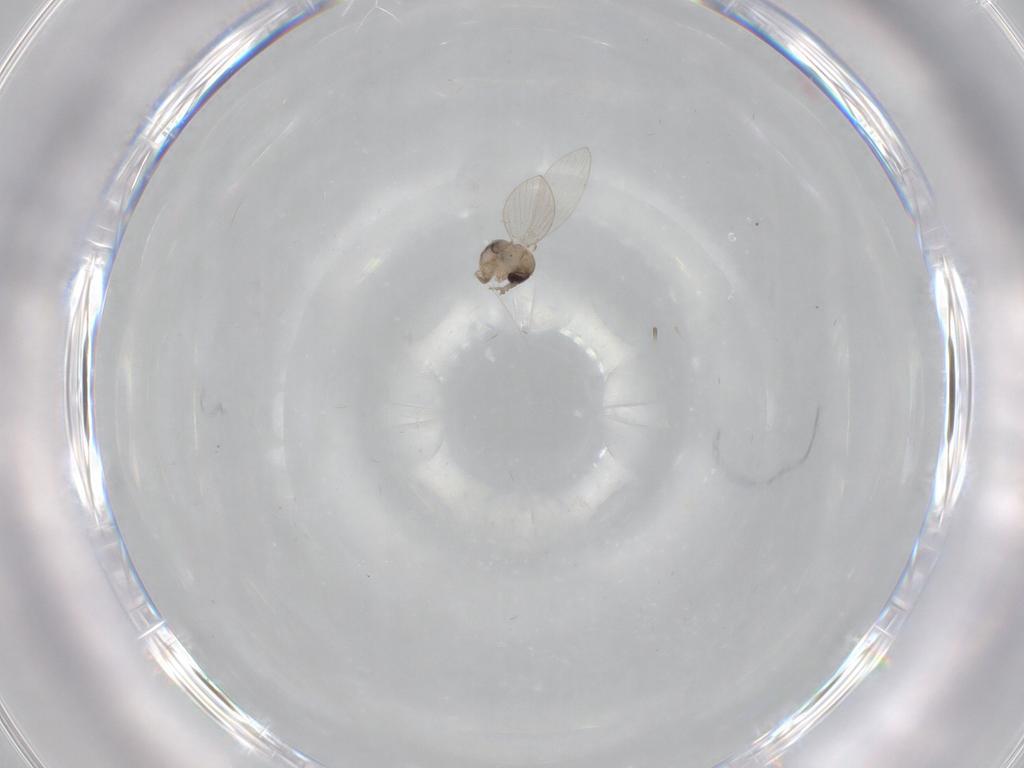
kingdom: Animalia
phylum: Arthropoda
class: Insecta
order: Diptera
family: Psychodidae
